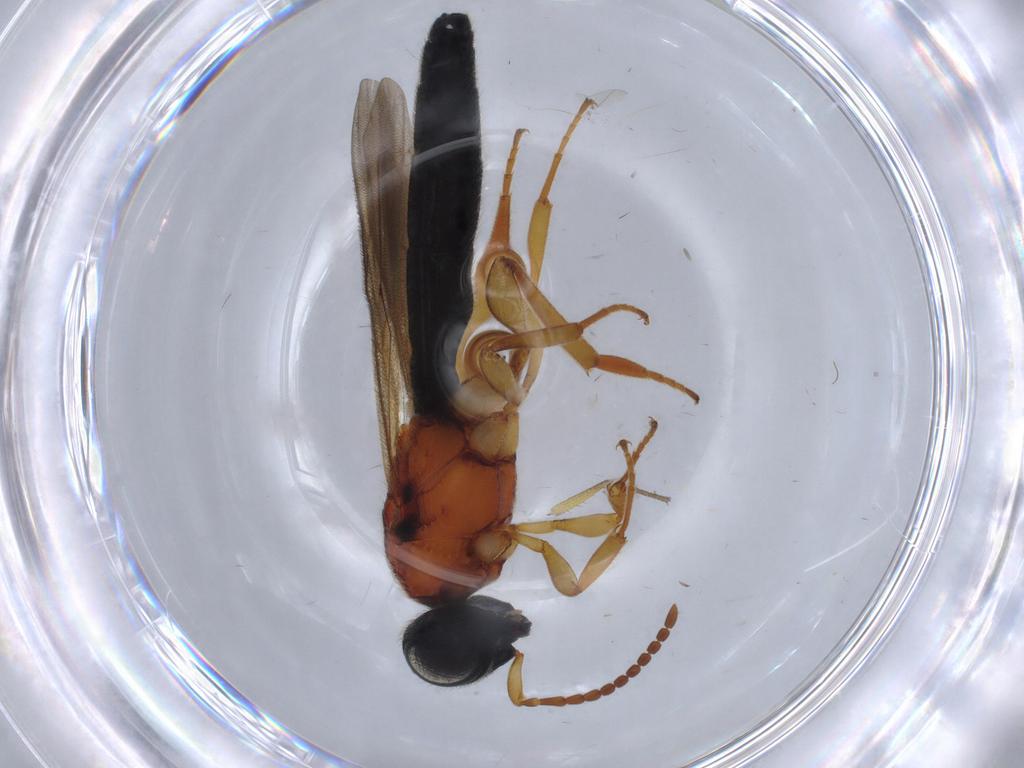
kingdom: Animalia
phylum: Arthropoda
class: Insecta
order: Hymenoptera
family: Scelionidae
